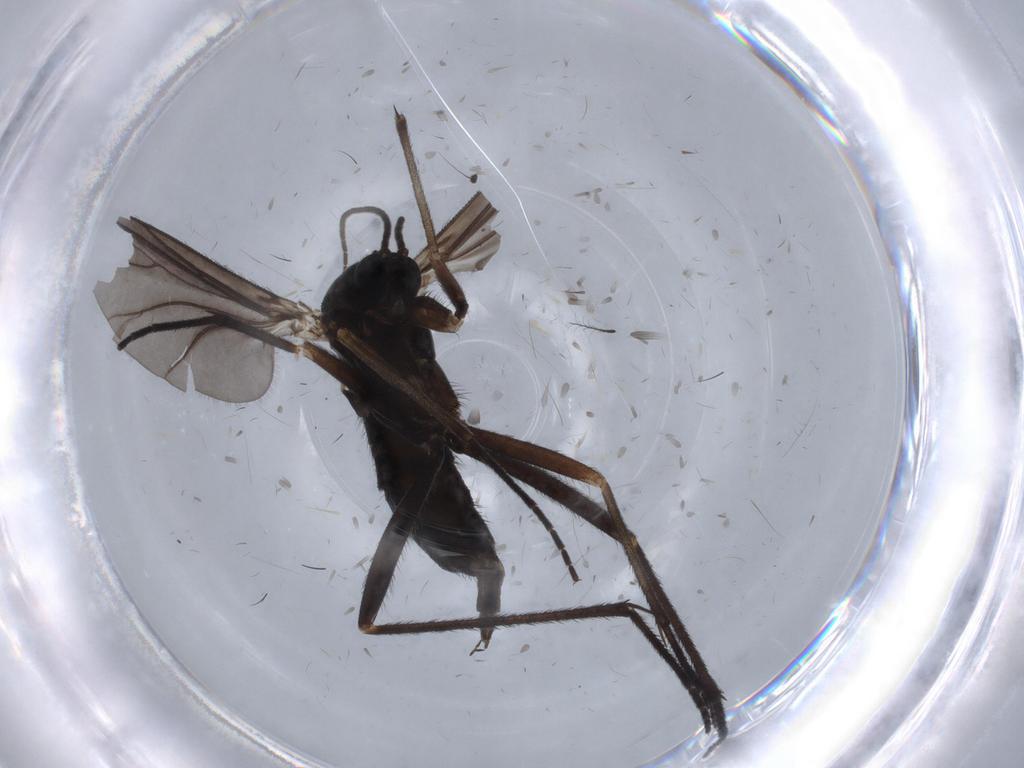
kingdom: Animalia
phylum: Arthropoda
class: Insecta
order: Diptera
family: Sciaridae
